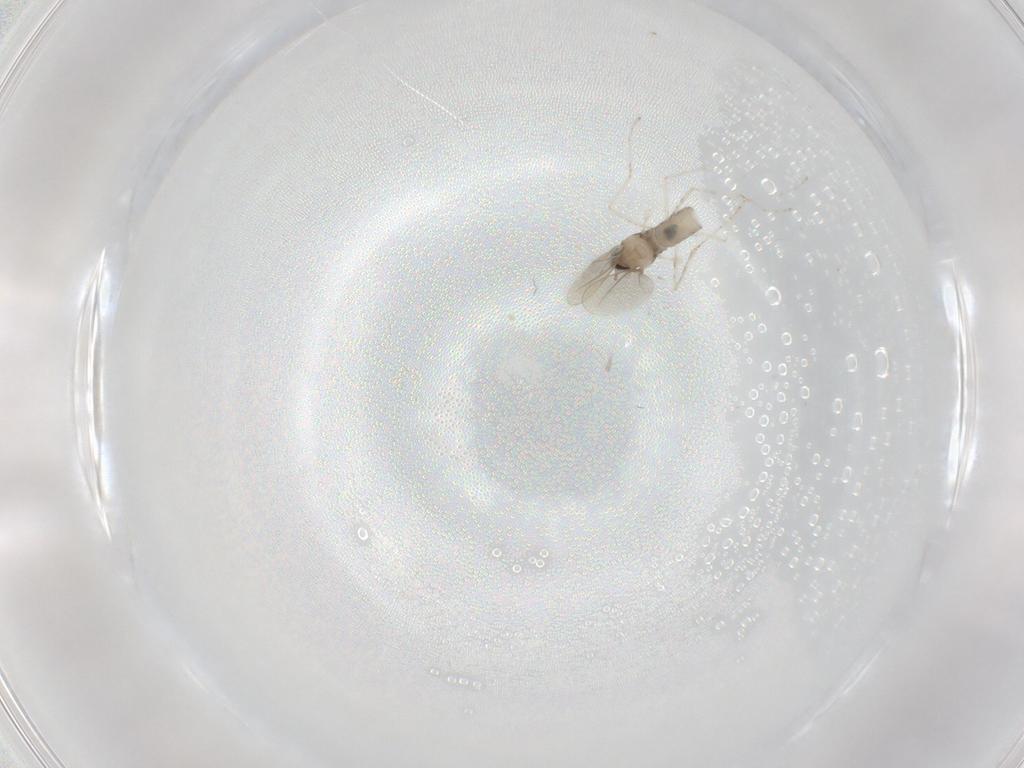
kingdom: Animalia
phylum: Arthropoda
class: Insecta
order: Diptera
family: Cecidomyiidae
